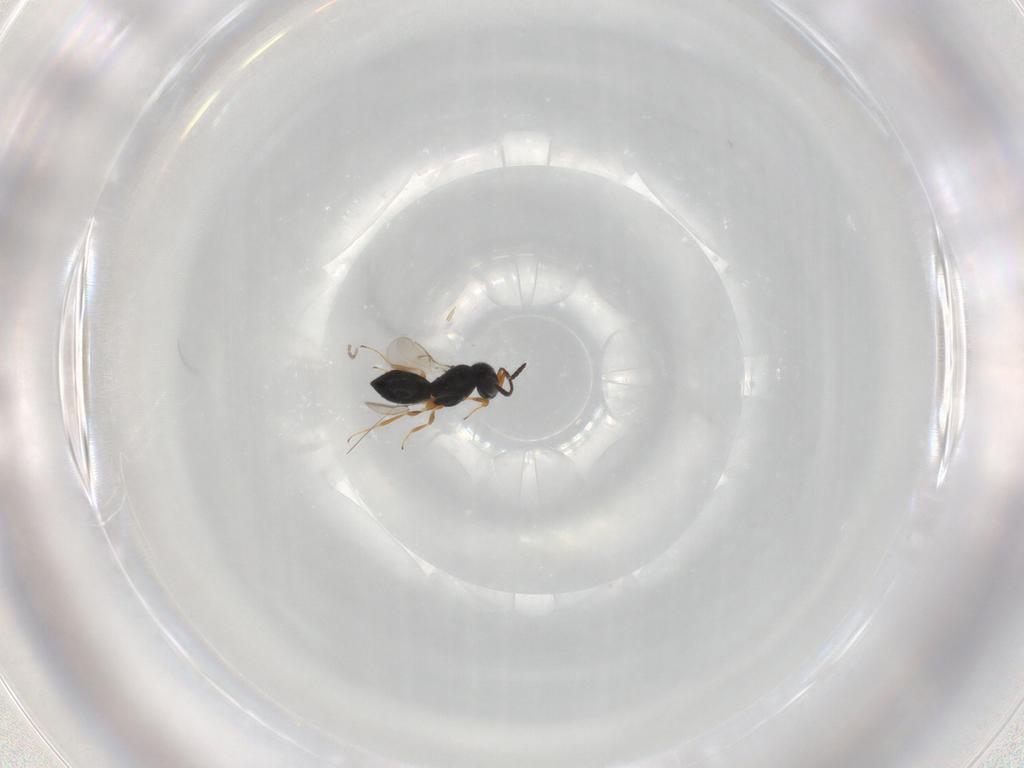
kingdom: Animalia
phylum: Arthropoda
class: Insecta
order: Hymenoptera
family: Scelionidae
